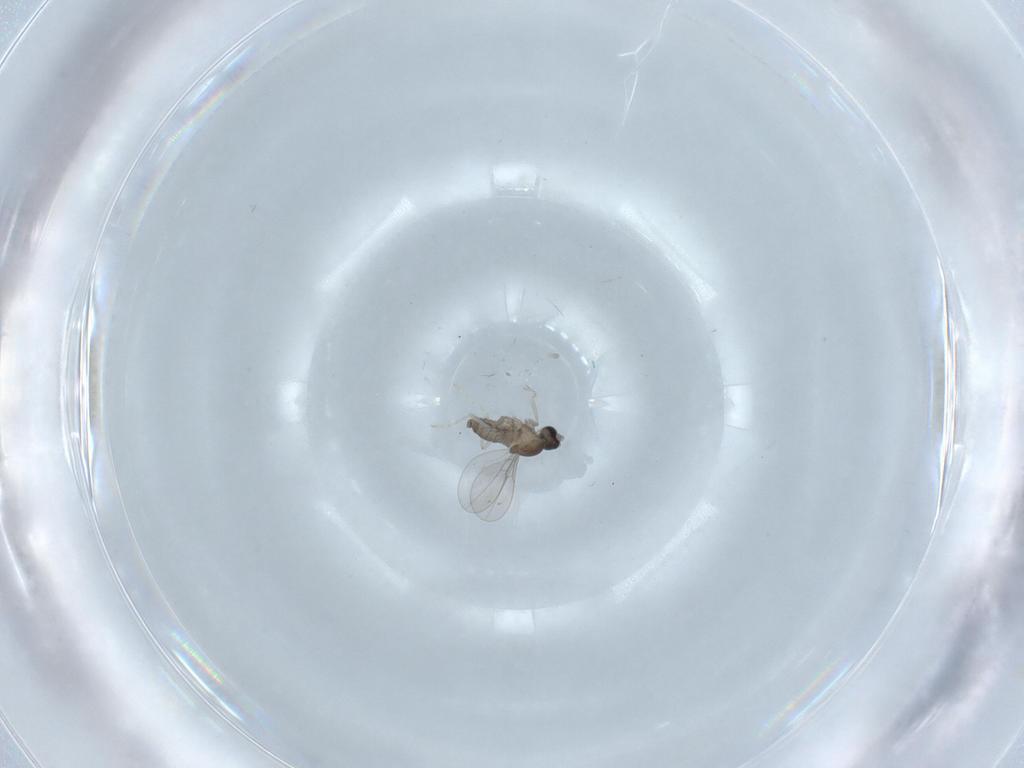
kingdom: Animalia
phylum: Arthropoda
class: Insecta
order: Diptera
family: Cecidomyiidae
